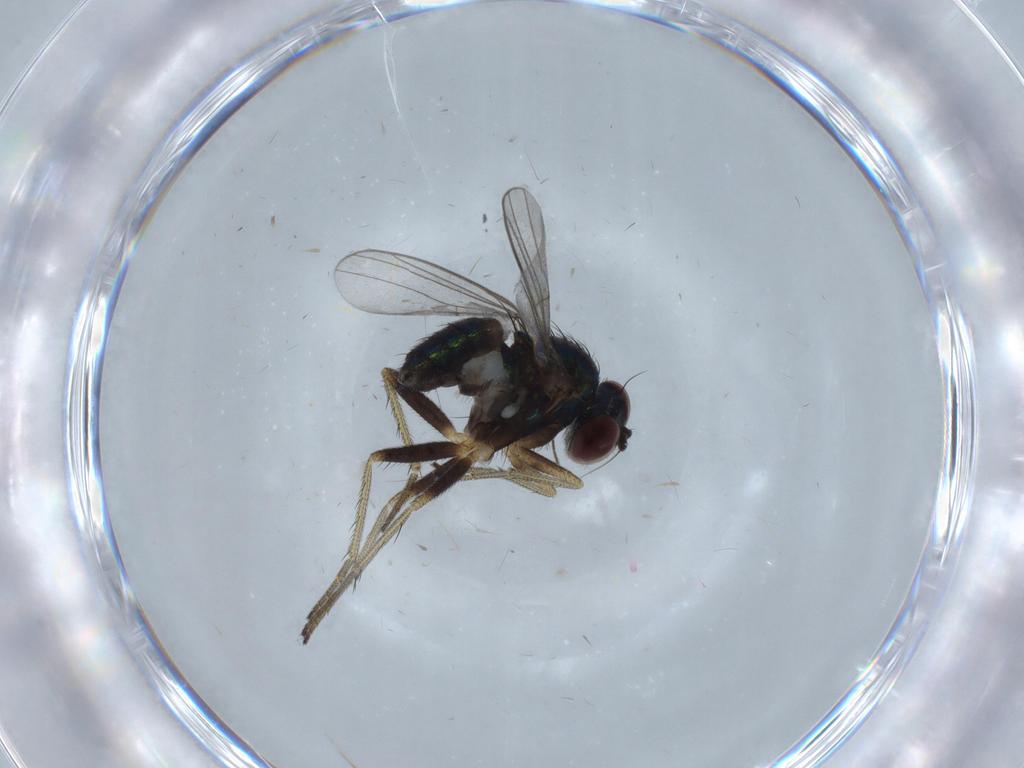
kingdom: Animalia
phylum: Arthropoda
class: Insecta
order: Diptera
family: Dolichopodidae
